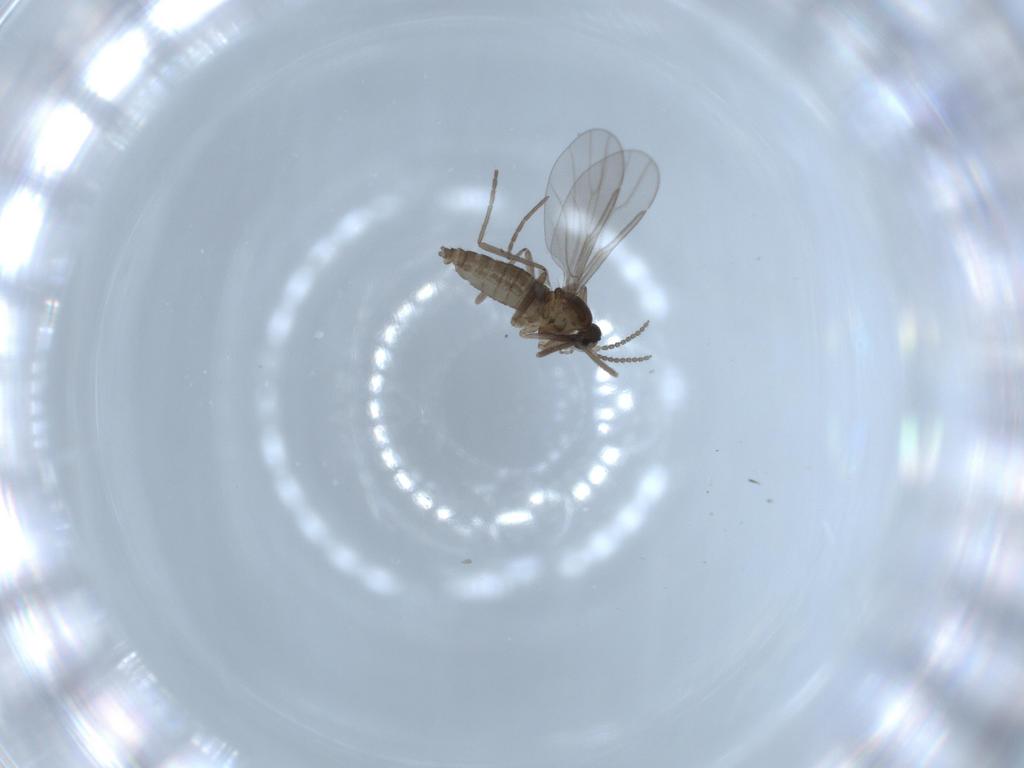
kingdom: Animalia
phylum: Arthropoda
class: Insecta
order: Diptera
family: Cecidomyiidae
